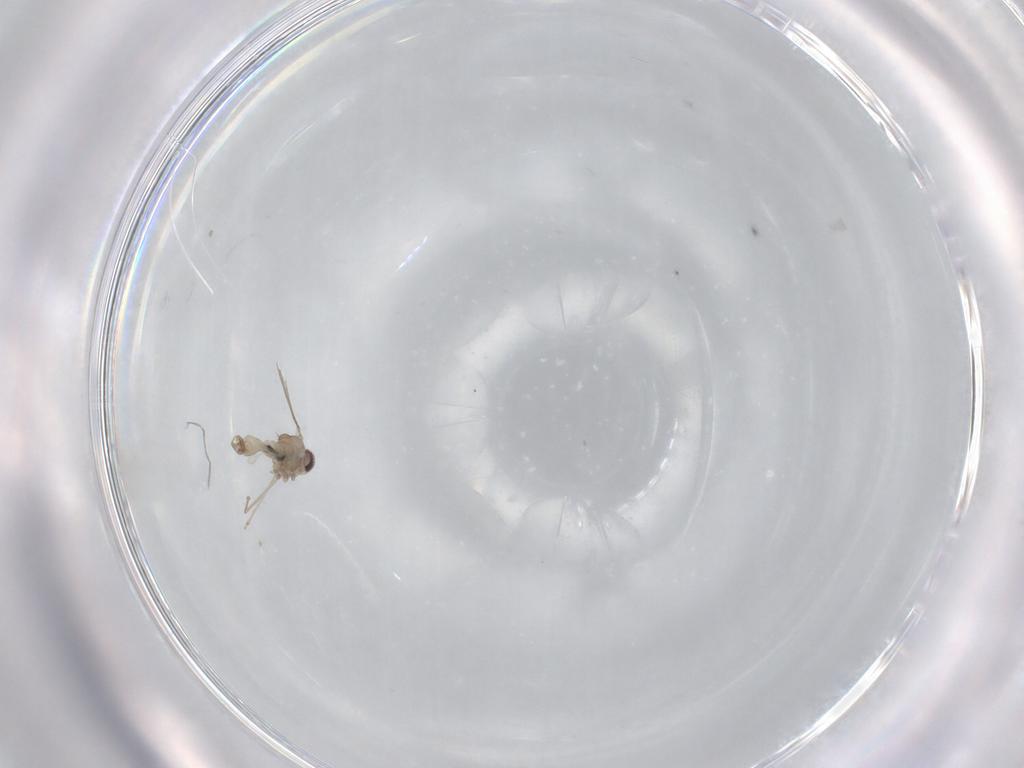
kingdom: Animalia
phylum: Arthropoda
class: Insecta
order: Diptera
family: Cecidomyiidae
